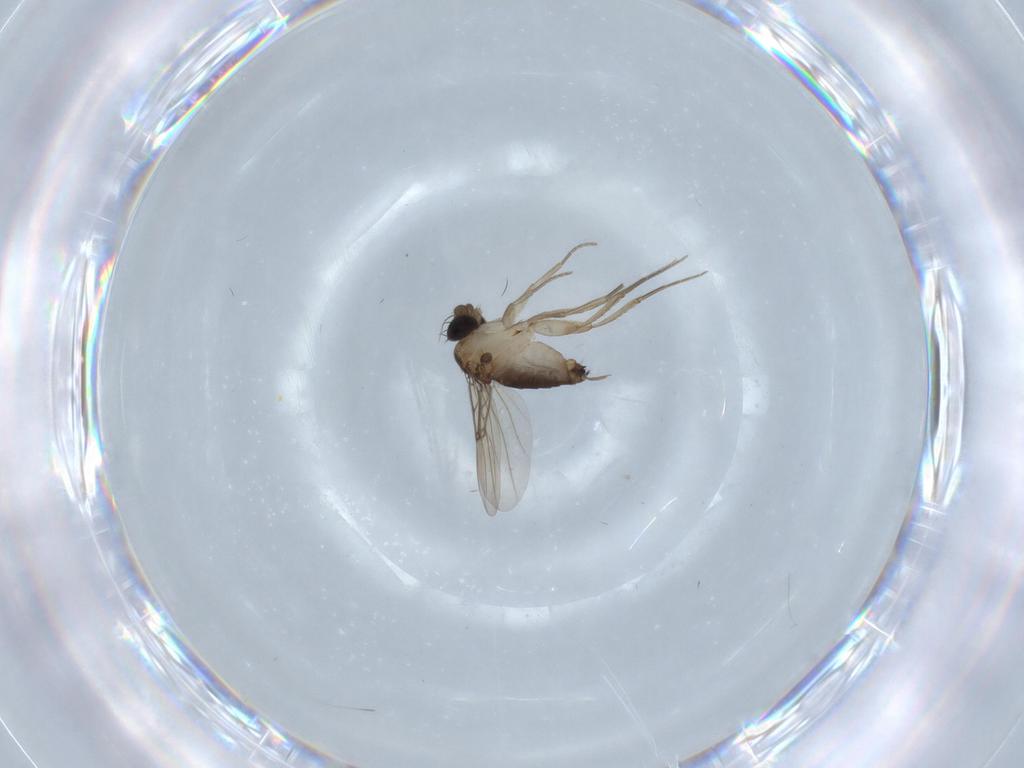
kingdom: Animalia
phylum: Arthropoda
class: Insecta
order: Diptera
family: Phoridae
